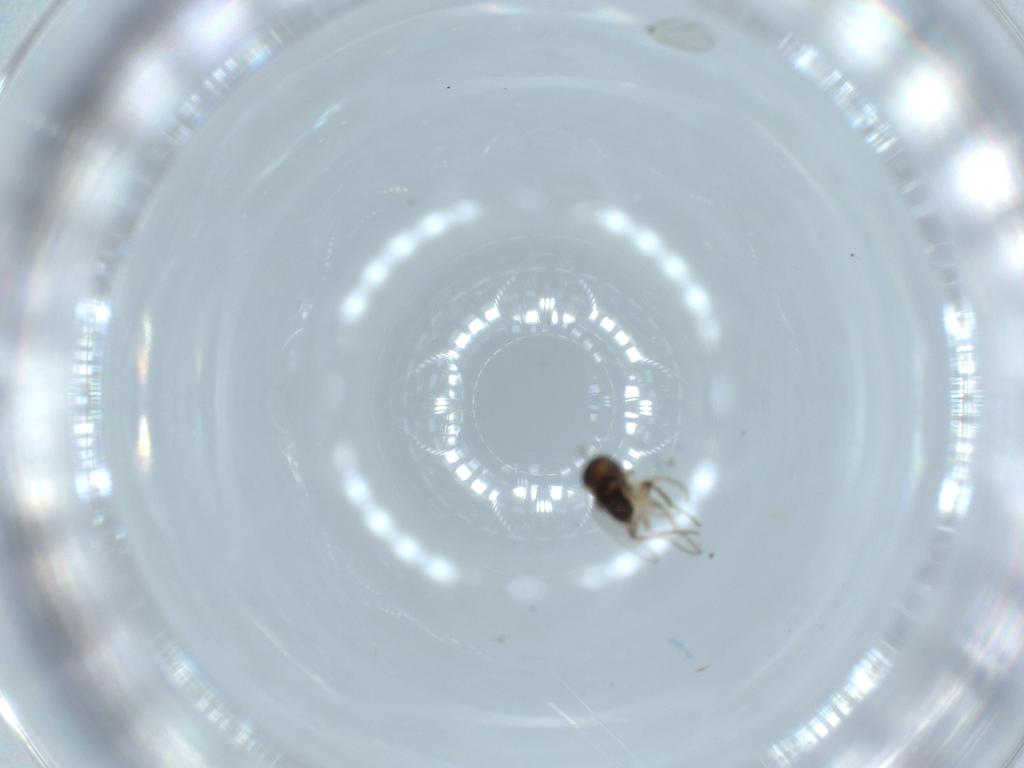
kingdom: Animalia
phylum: Arthropoda
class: Insecta
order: Diptera
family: Phoridae
